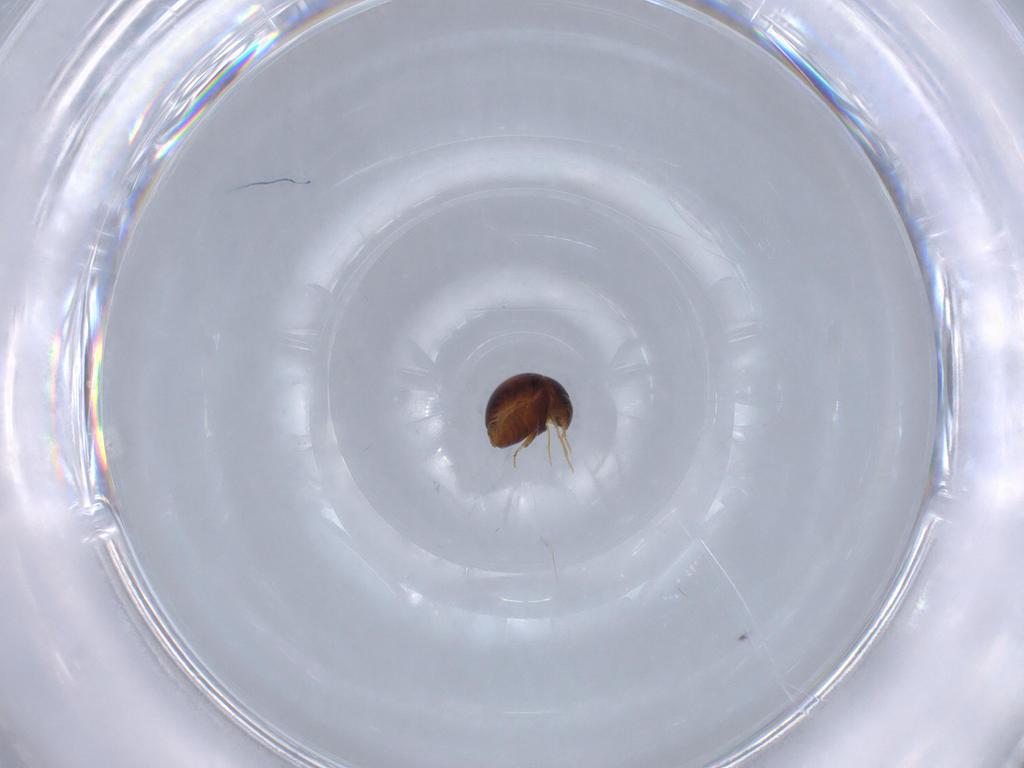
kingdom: Animalia
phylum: Arthropoda
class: Insecta
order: Coleoptera
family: Clambidae
